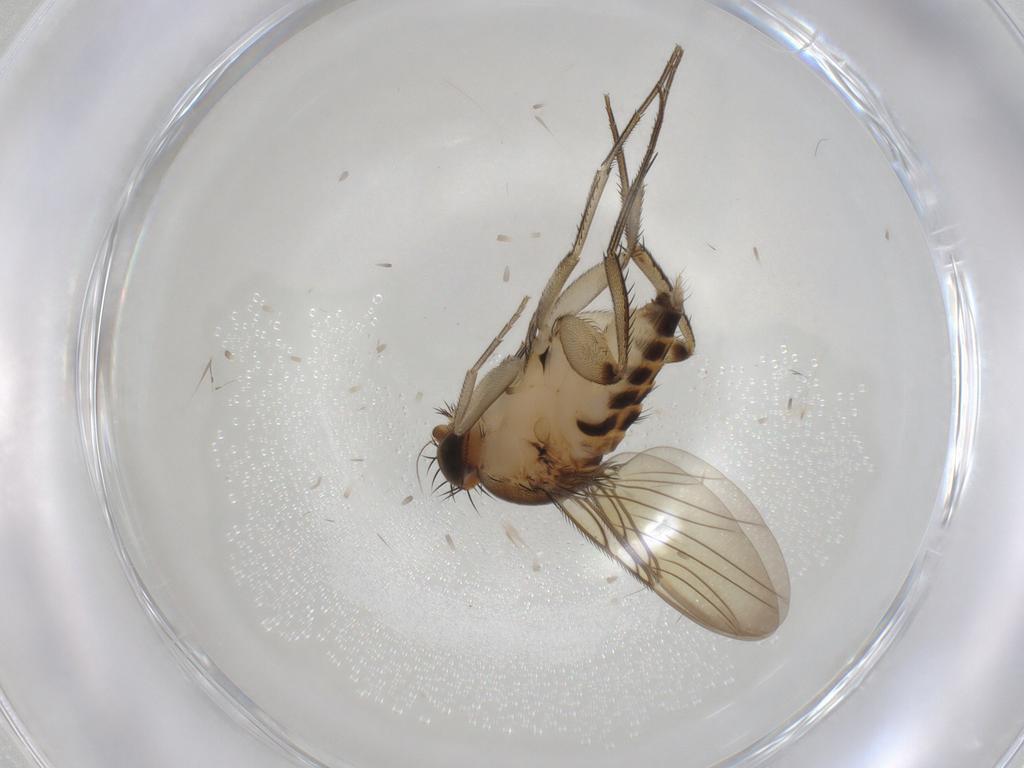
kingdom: Animalia
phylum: Arthropoda
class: Insecta
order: Diptera
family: Phoridae
